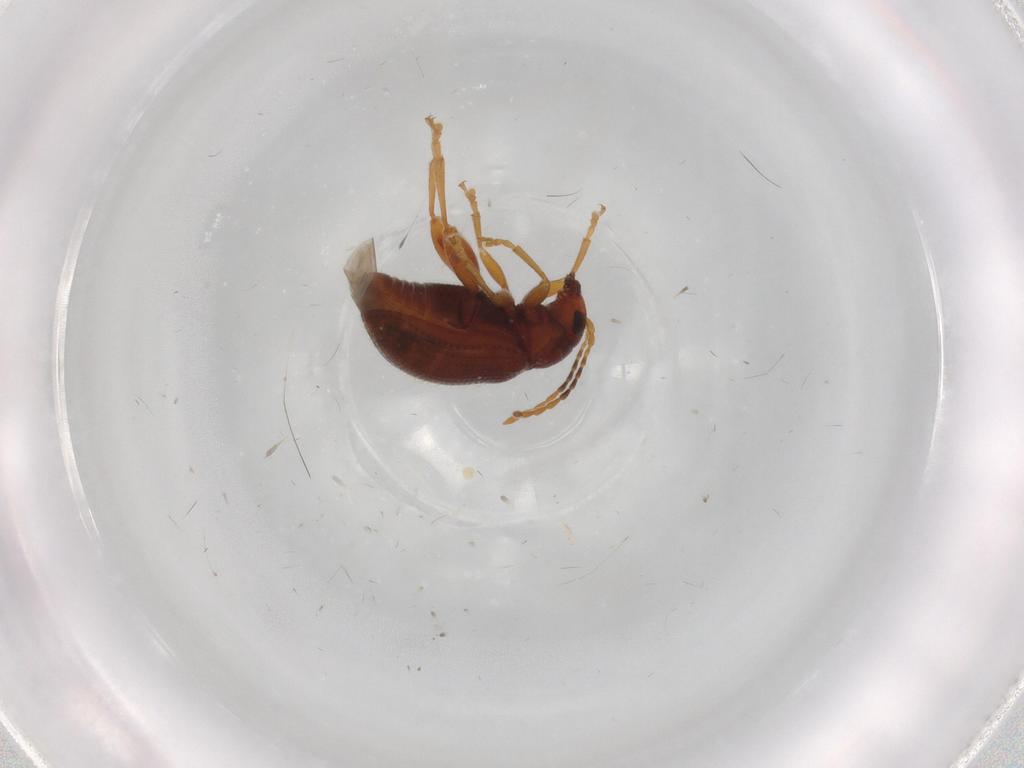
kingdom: Animalia
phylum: Arthropoda
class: Insecta
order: Coleoptera
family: Chrysomelidae
